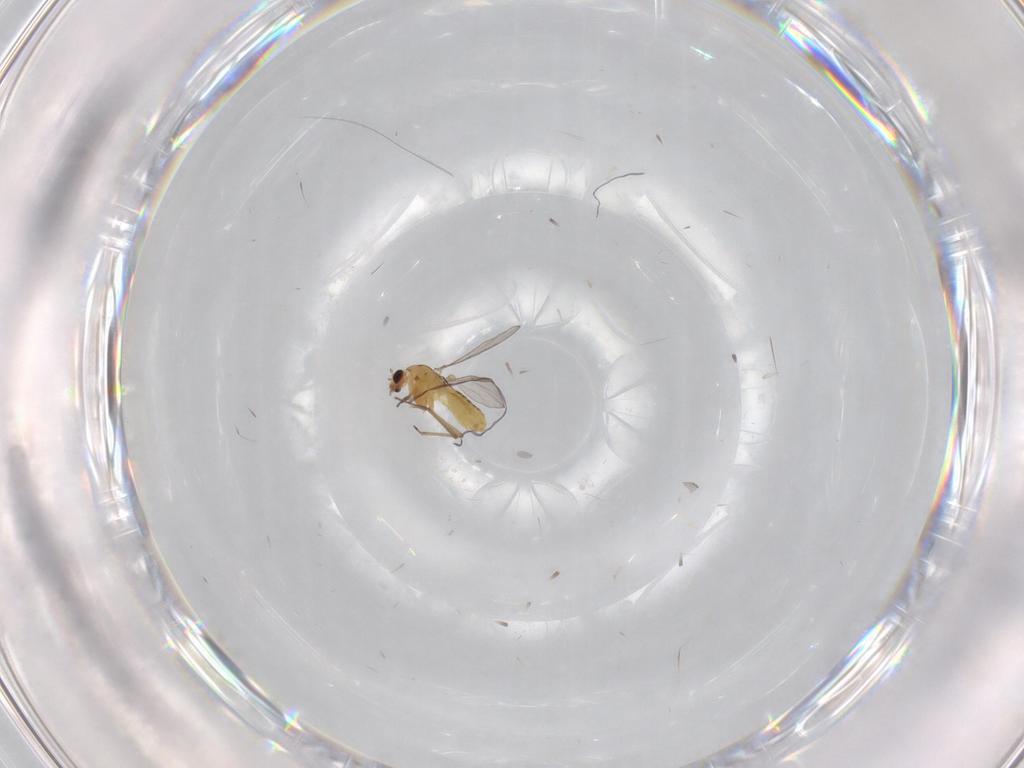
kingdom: Animalia
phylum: Arthropoda
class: Insecta
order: Diptera
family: Chironomidae
